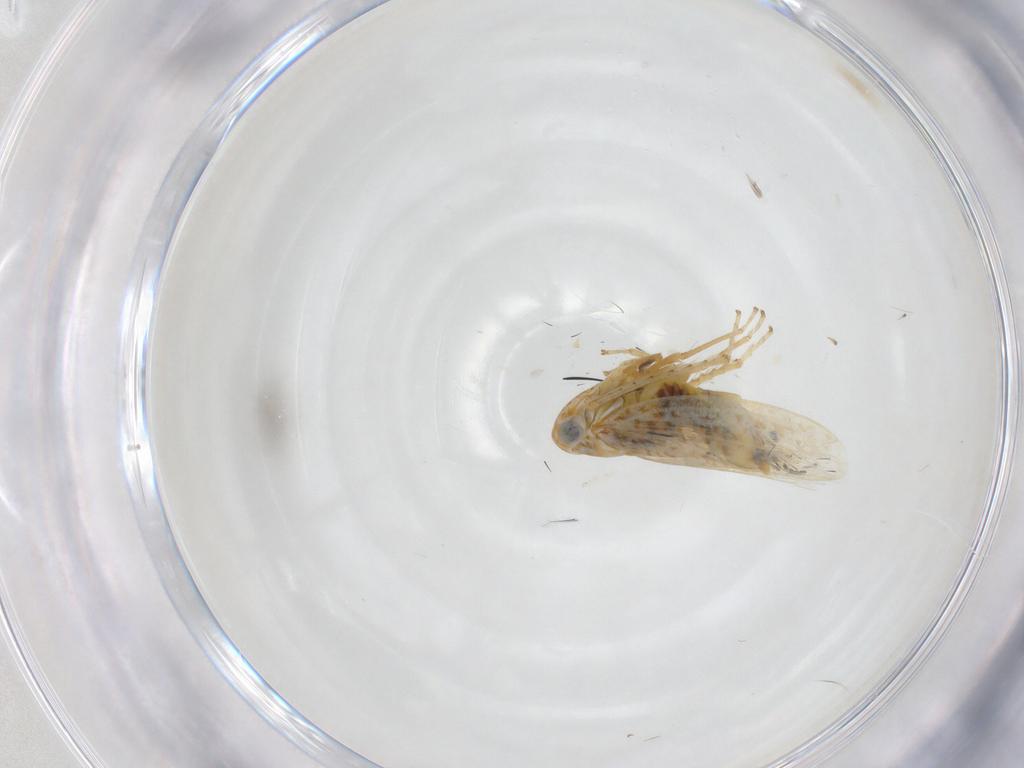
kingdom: Animalia
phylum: Arthropoda
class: Insecta
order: Hemiptera
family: Cicadellidae
